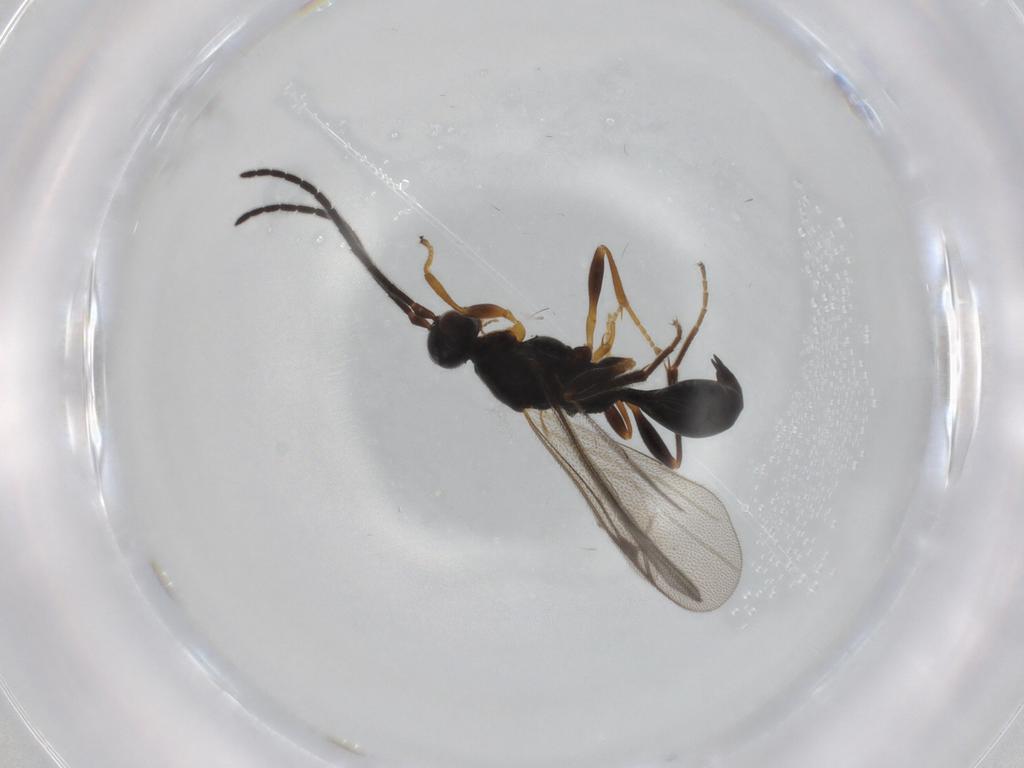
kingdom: Animalia
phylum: Arthropoda
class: Insecta
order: Hymenoptera
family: Proctotrupidae
